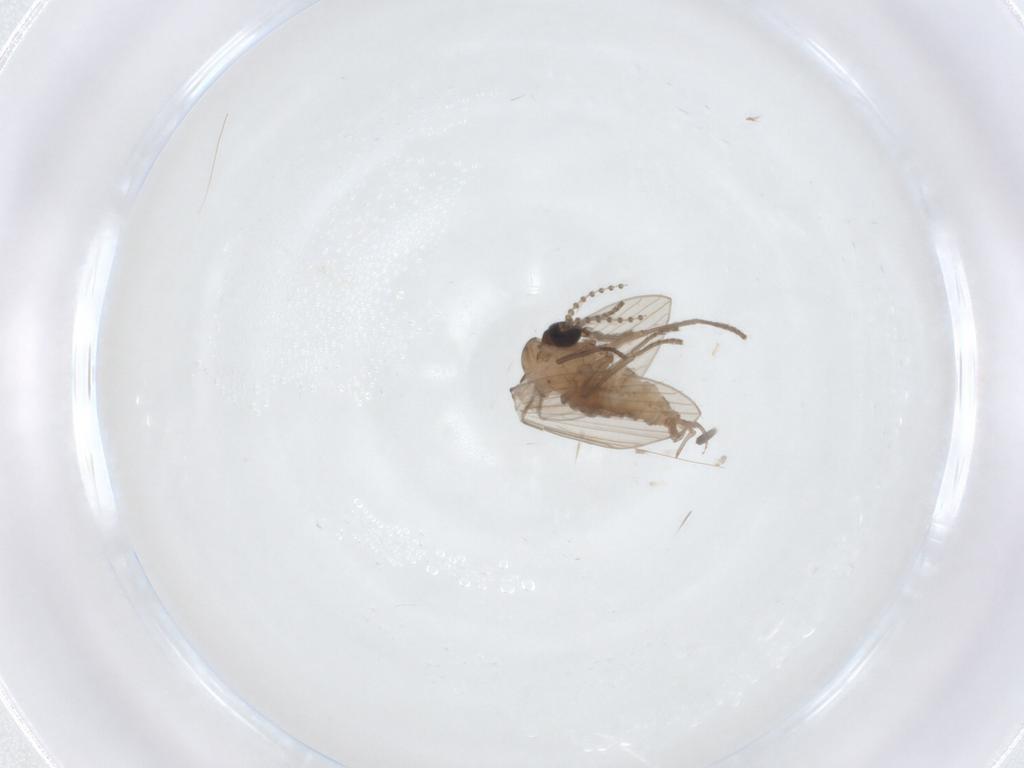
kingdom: Animalia
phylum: Arthropoda
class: Insecta
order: Diptera
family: Psychodidae
